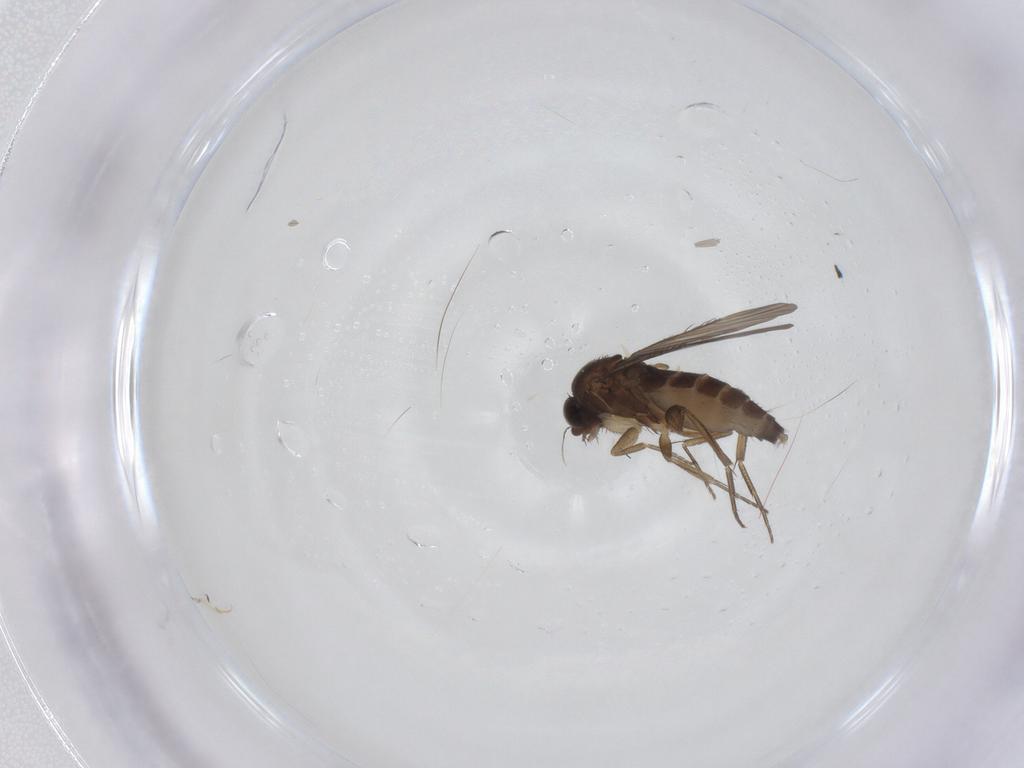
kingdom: Animalia
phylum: Arthropoda
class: Insecta
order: Diptera
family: Phoridae
